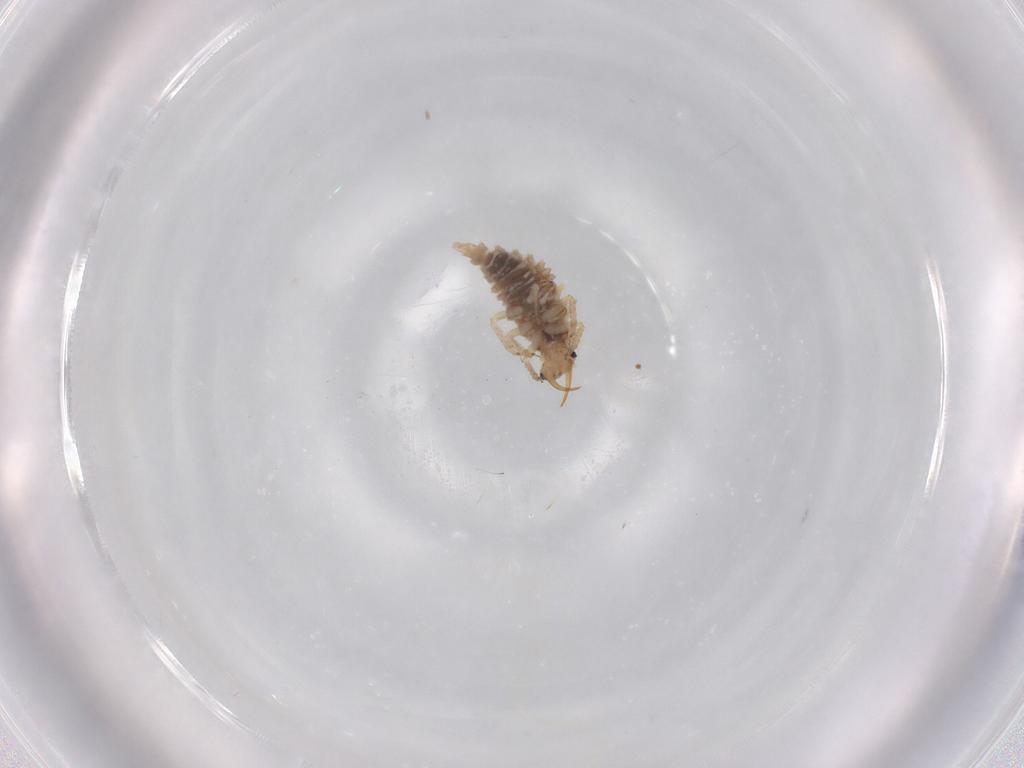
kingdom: Animalia
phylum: Arthropoda
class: Insecta
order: Neuroptera
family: Chrysopidae
